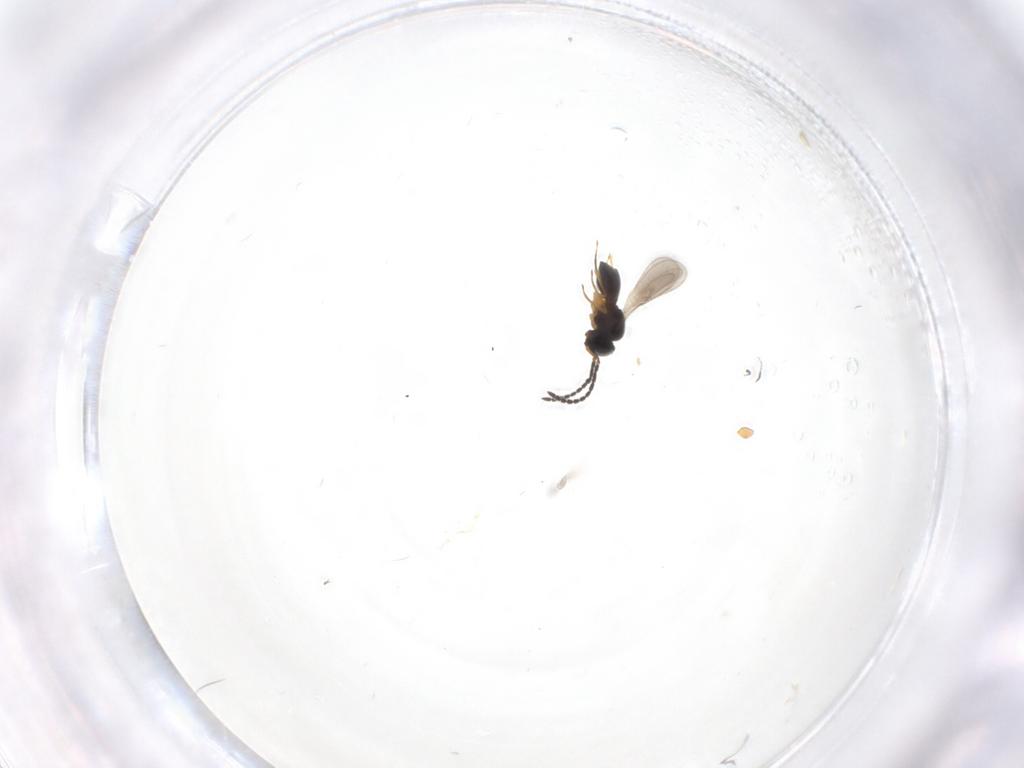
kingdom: Animalia
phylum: Arthropoda
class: Insecta
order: Hymenoptera
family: Scelionidae
